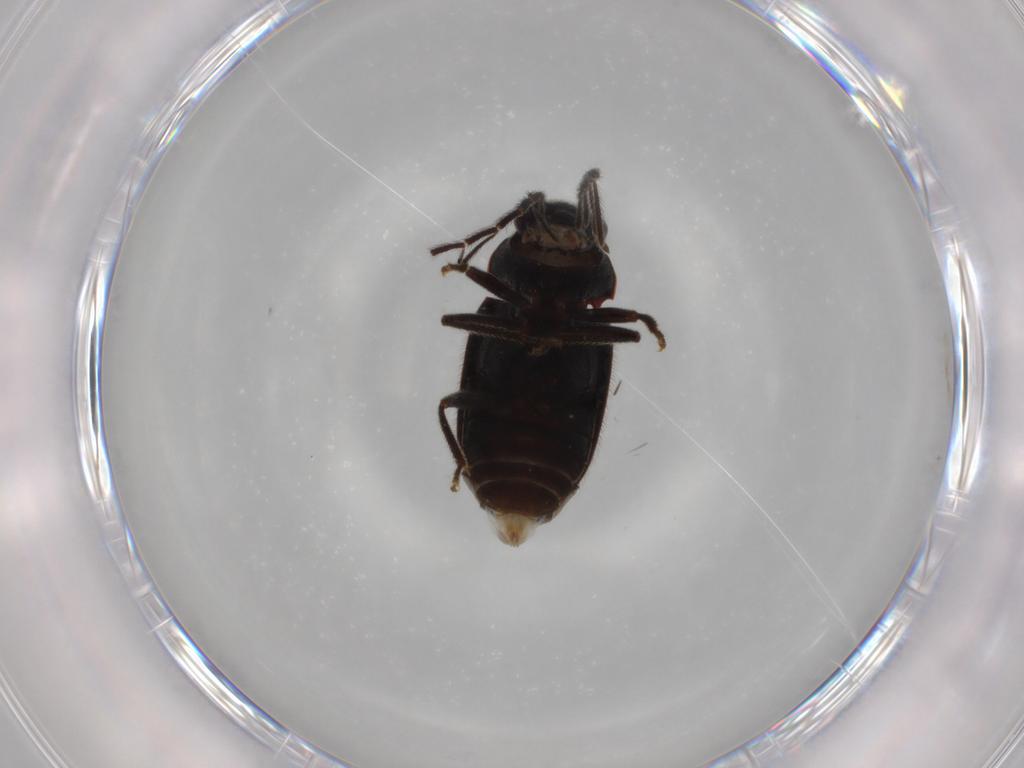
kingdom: Animalia
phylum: Arthropoda
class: Insecta
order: Coleoptera
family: Ptilodactylidae
